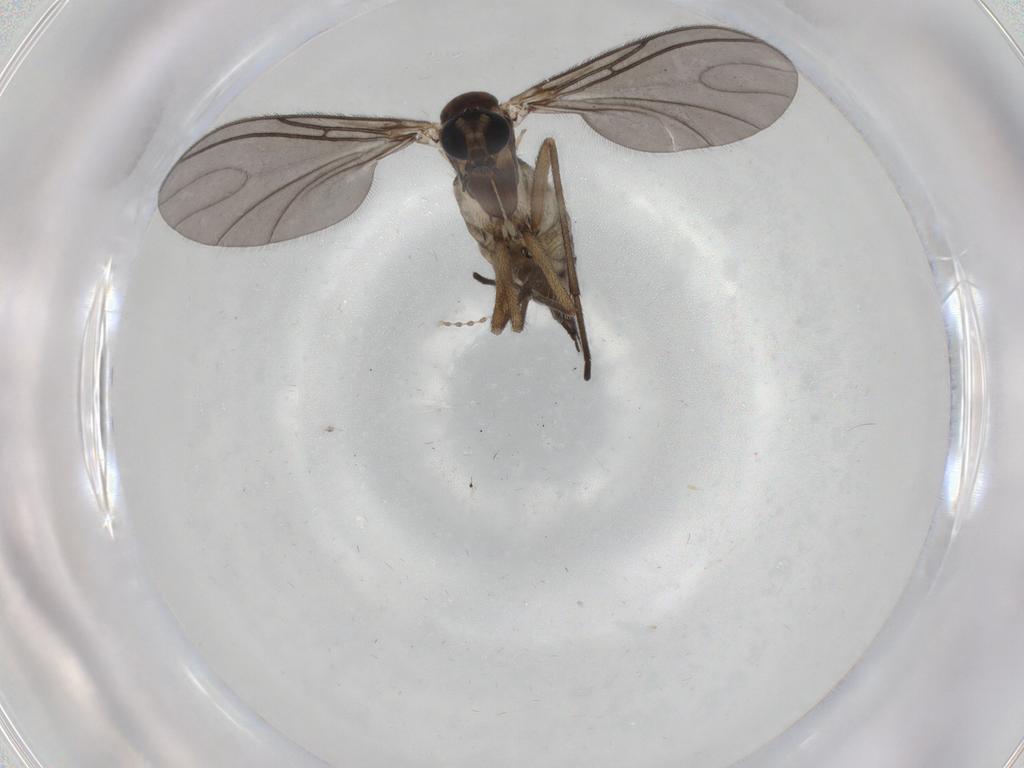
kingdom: Animalia
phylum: Arthropoda
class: Insecta
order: Diptera
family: Sciaridae
